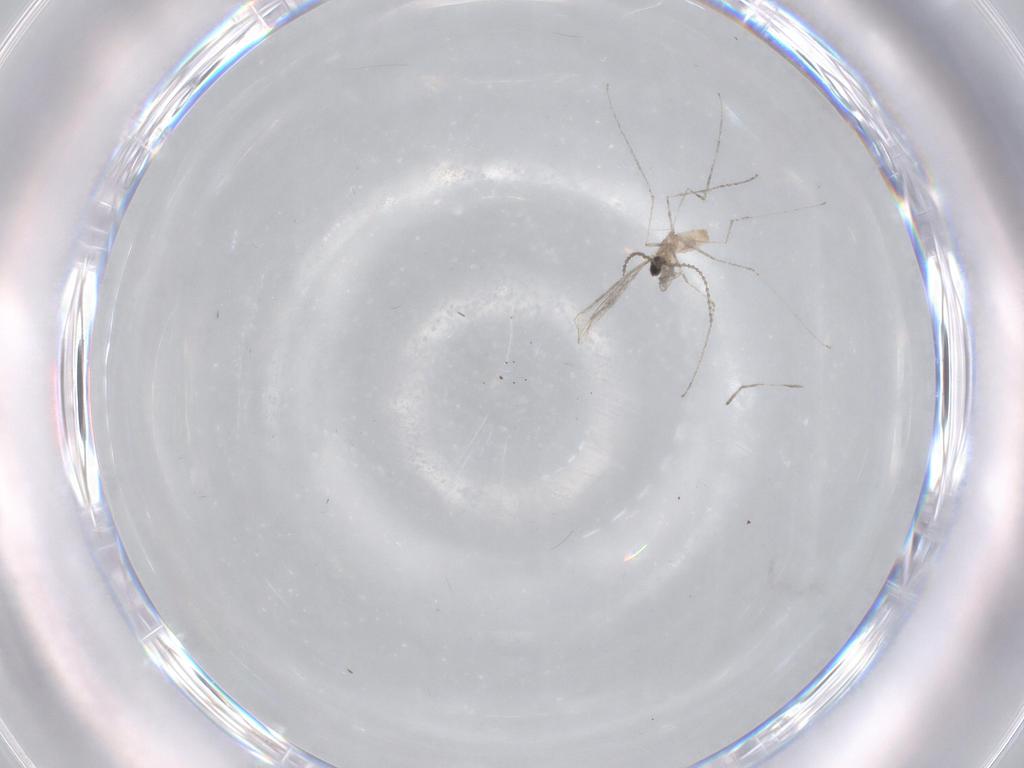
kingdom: Animalia
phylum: Arthropoda
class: Insecta
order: Diptera
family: Cecidomyiidae
